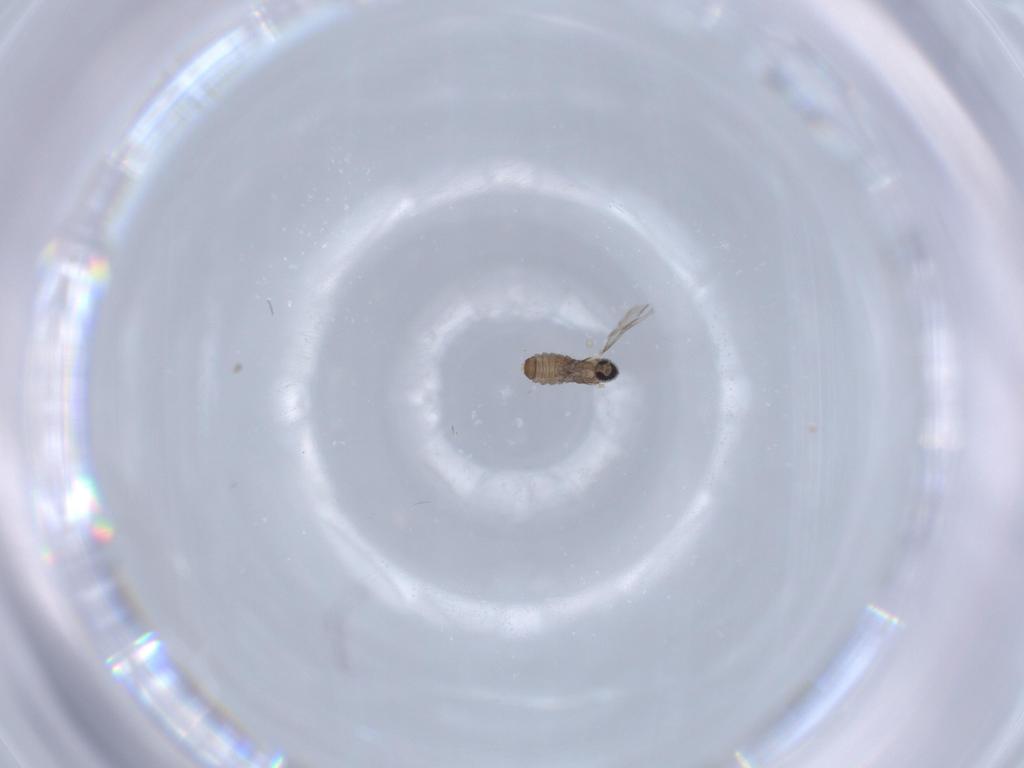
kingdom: Animalia
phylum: Arthropoda
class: Insecta
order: Diptera
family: Cecidomyiidae
